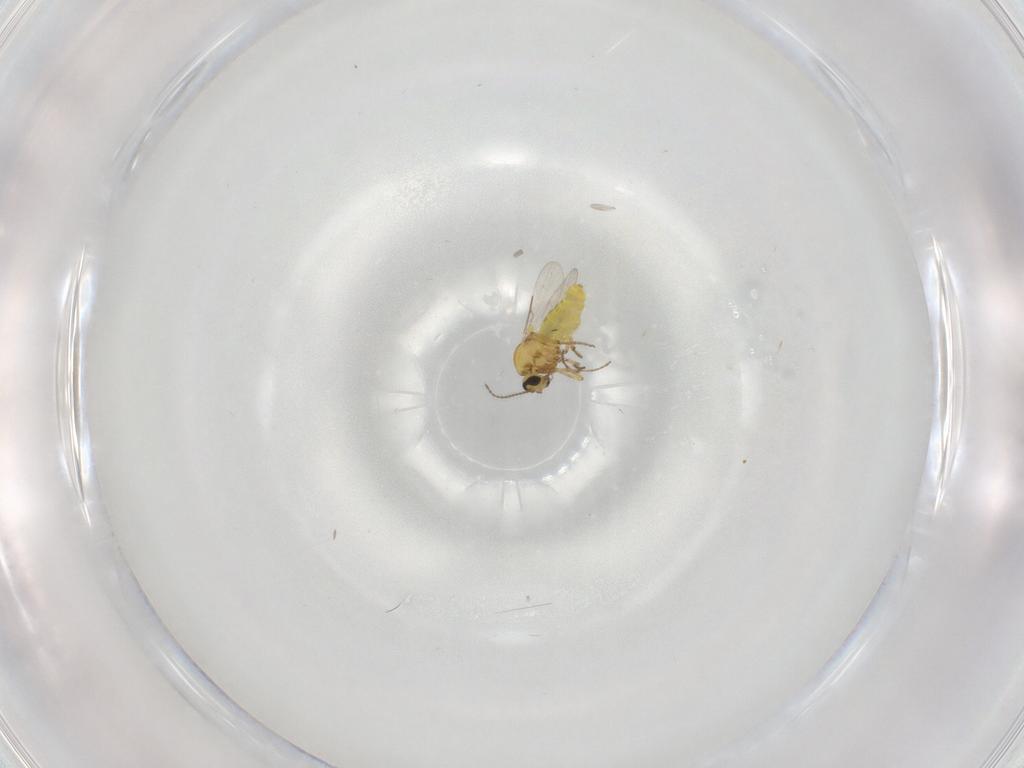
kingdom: Animalia
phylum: Arthropoda
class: Insecta
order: Diptera
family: Ceratopogonidae
